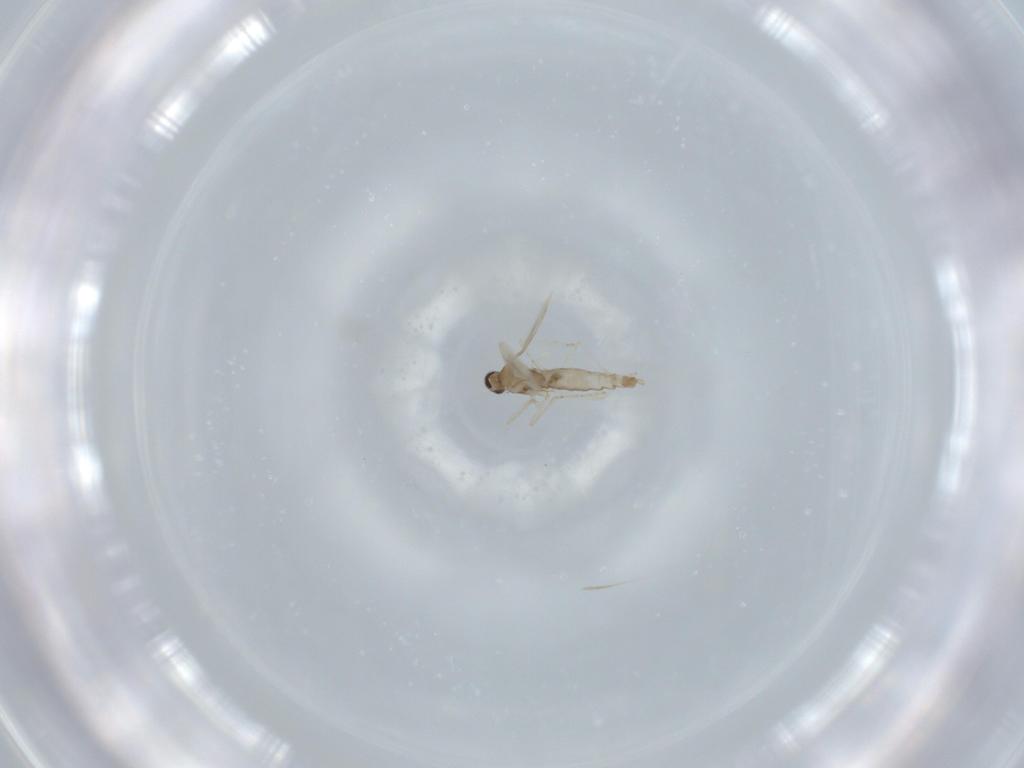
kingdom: Animalia
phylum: Arthropoda
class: Insecta
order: Diptera
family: Cecidomyiidae
